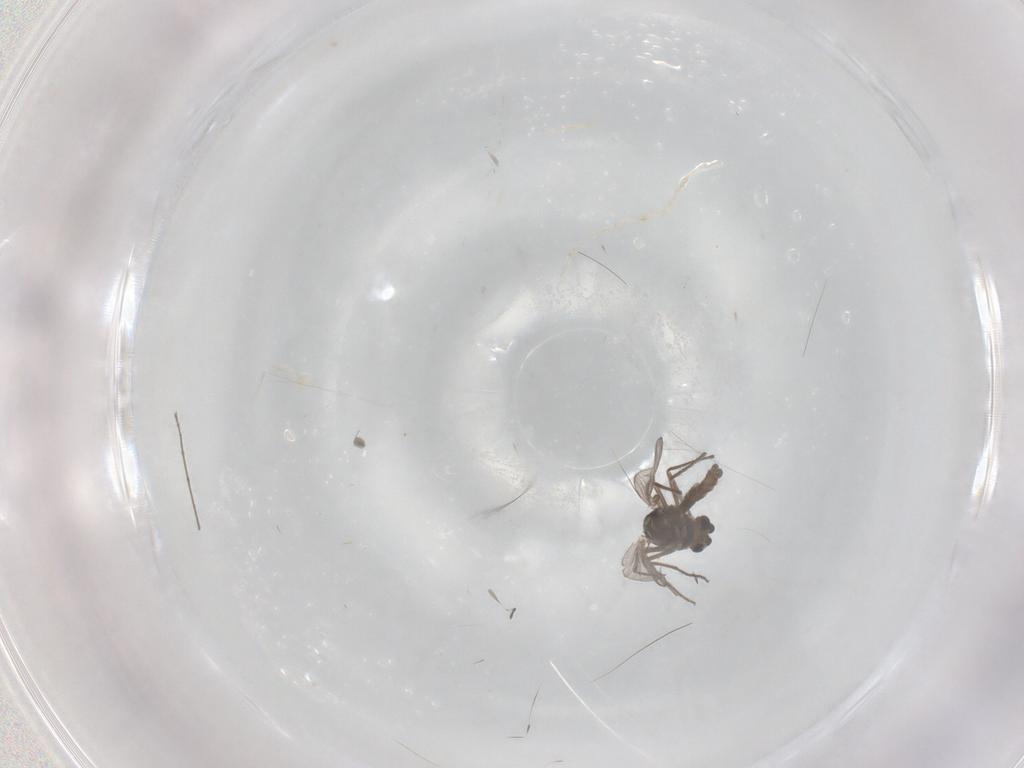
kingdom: Animalia
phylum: Arthropoda
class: Insecta
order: Diptera
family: Chironomidae
